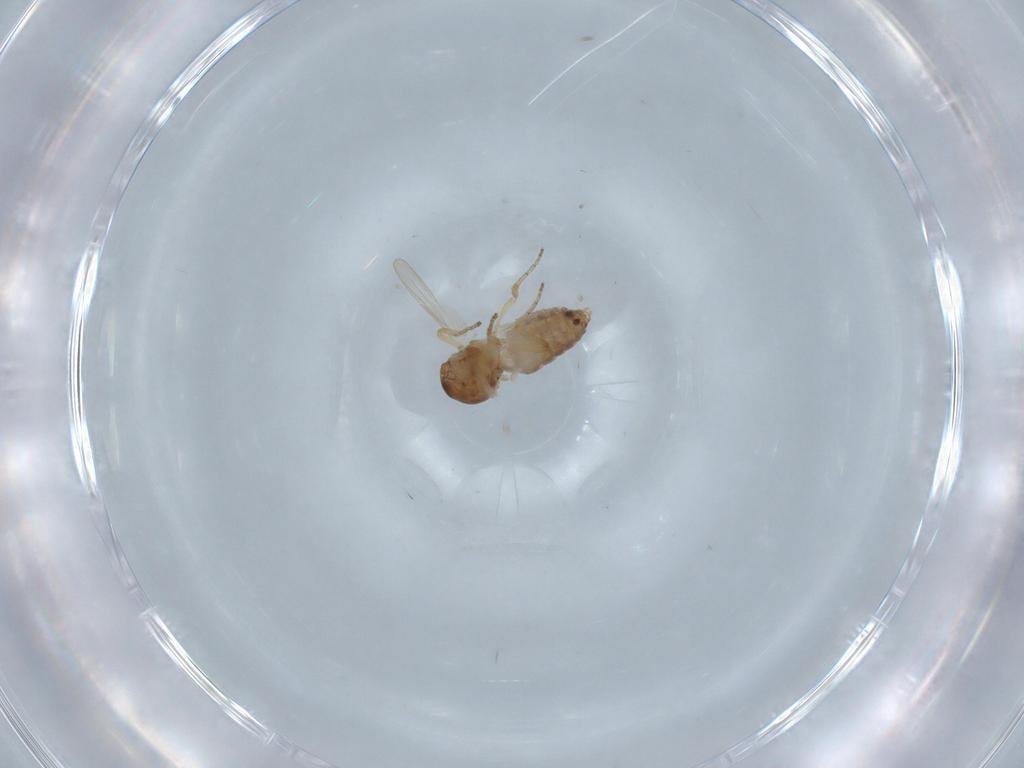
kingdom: Animalia
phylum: Arthropoda
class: Insecta
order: Diptera
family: Ceratopogonidae
